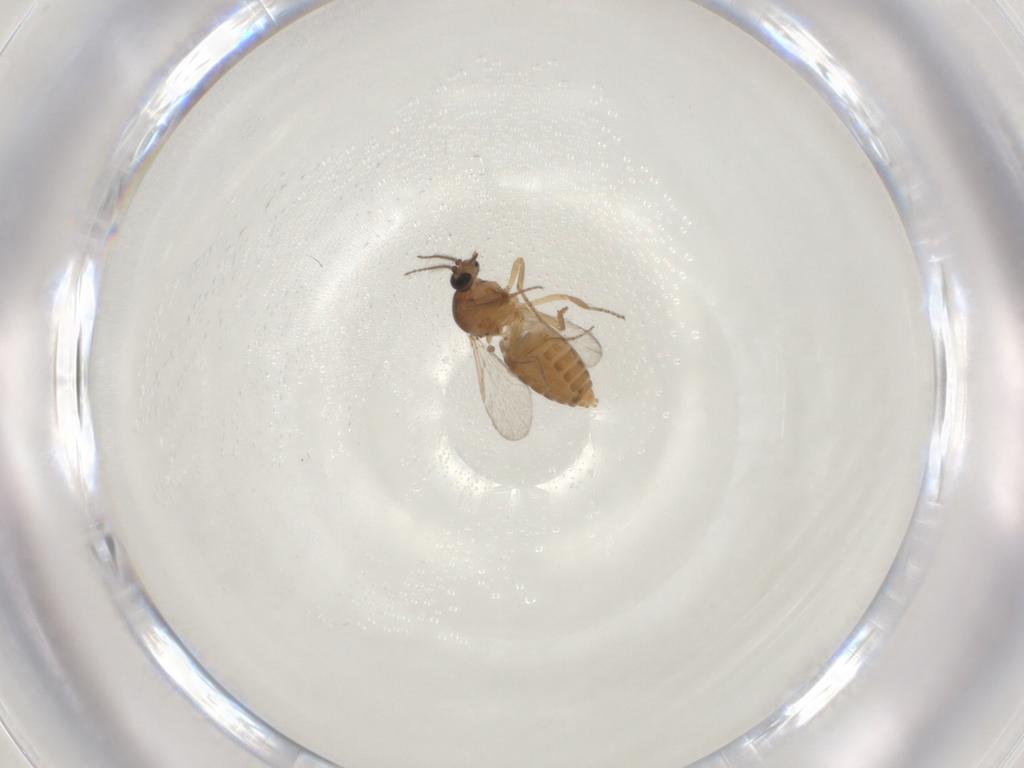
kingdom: Animalia
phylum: Arthropoda
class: Insecta
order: Diptera
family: Ceratopogonidae
